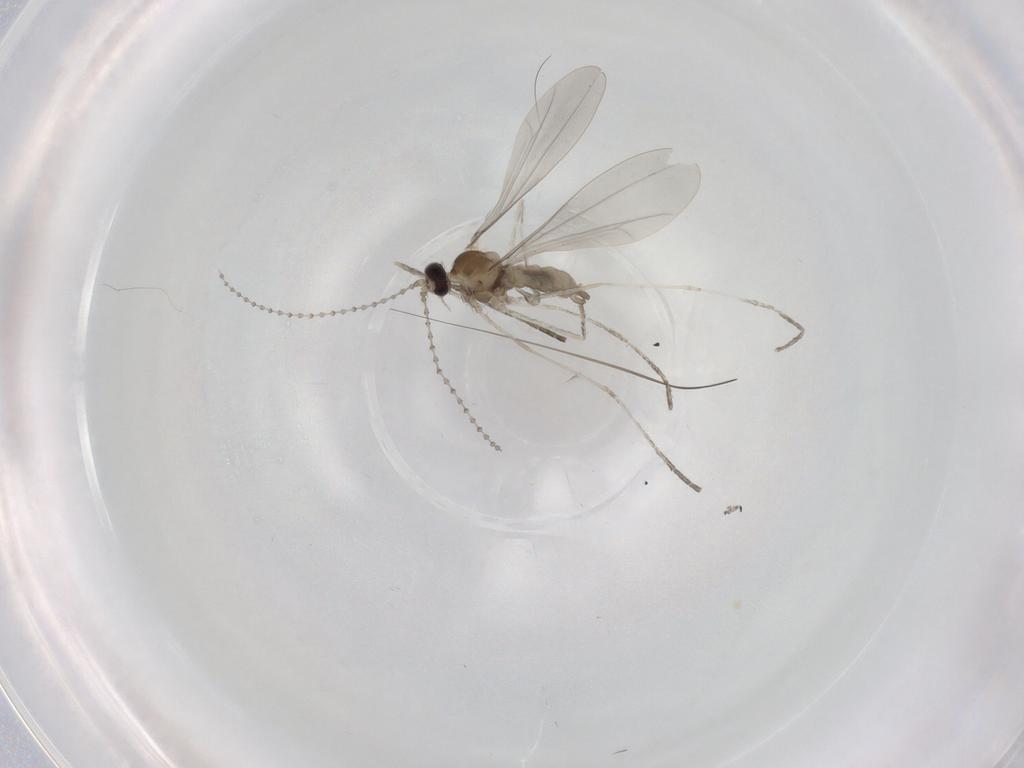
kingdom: Animalia
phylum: Arthropoda
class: Insecta
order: Diptera
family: Cecidomyiidae
